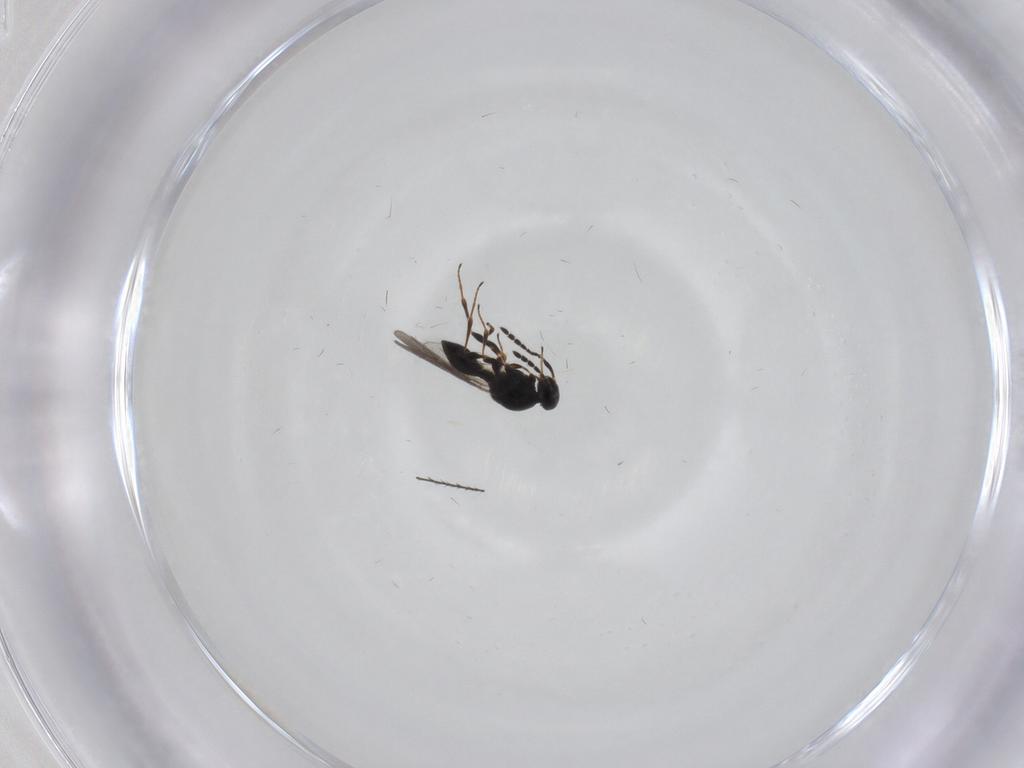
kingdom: Animalia
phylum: Arthropoda
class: Insecta
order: Hymenoptera
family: Platygastridae
